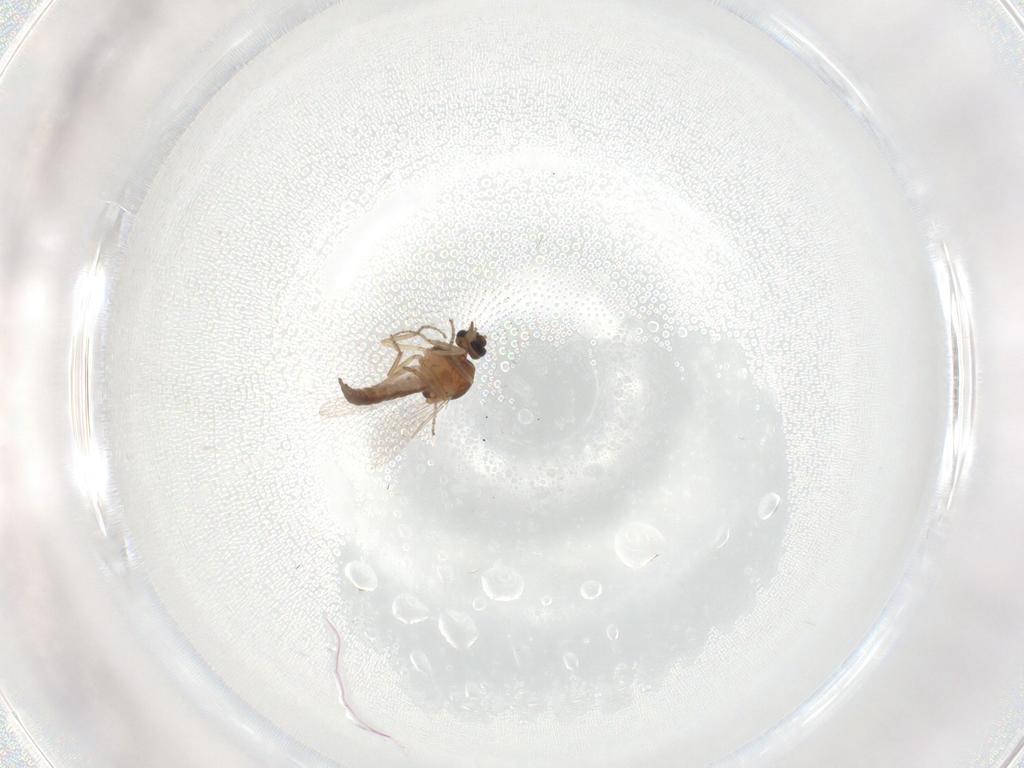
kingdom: Animalia
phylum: Arthropoda
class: Insecta
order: Diptera
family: Ceratopogonidae
